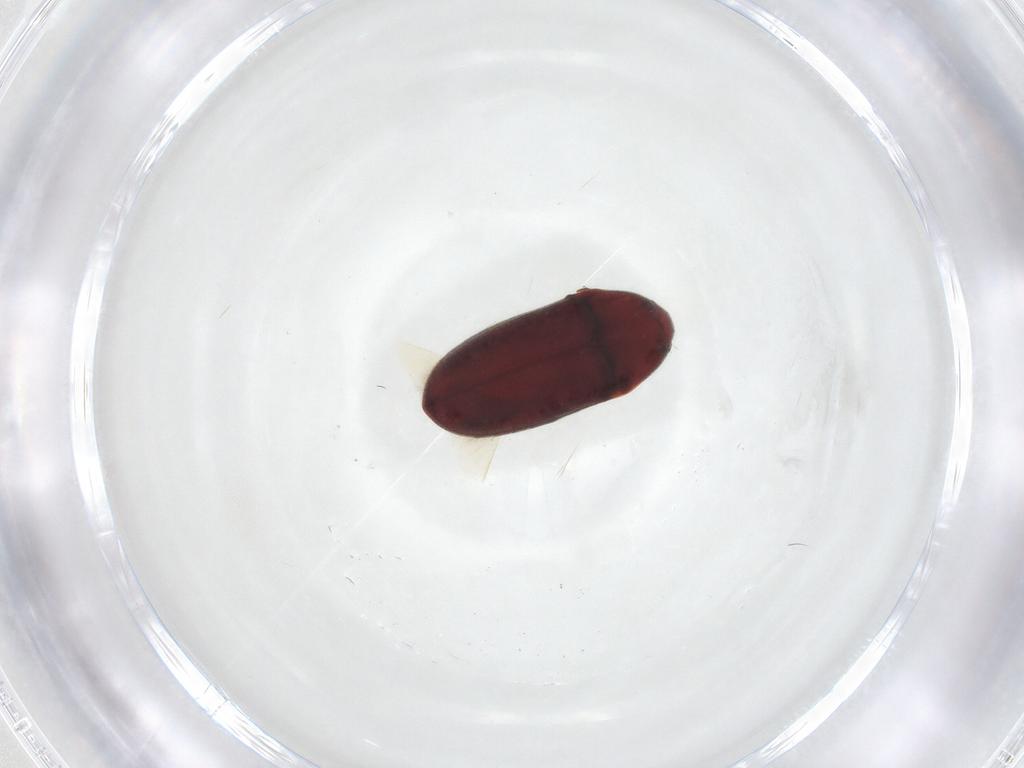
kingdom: Animalia
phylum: Arthropoda
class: Insecta
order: Coleoptera
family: Throscidae
